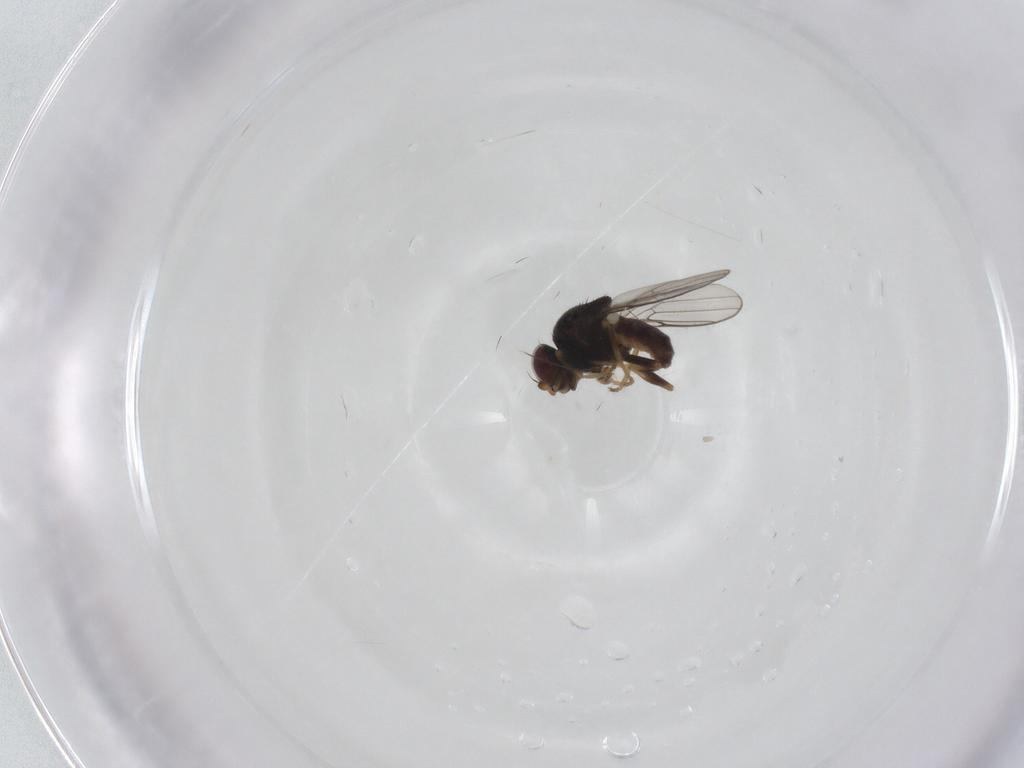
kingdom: Animalia
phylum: Arthropoda
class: Insecta
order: Diptera
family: Chloropidae
